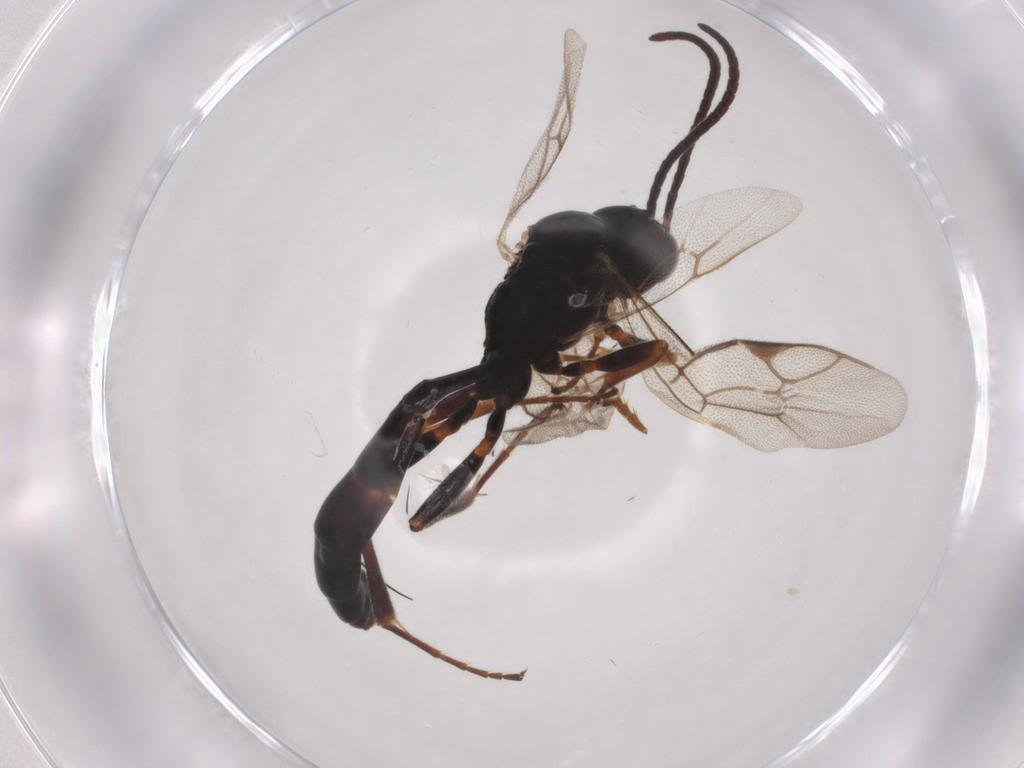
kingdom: Animalia
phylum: Arthropoda
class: Insecta
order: Hymenoptera
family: Ichneumonidae
